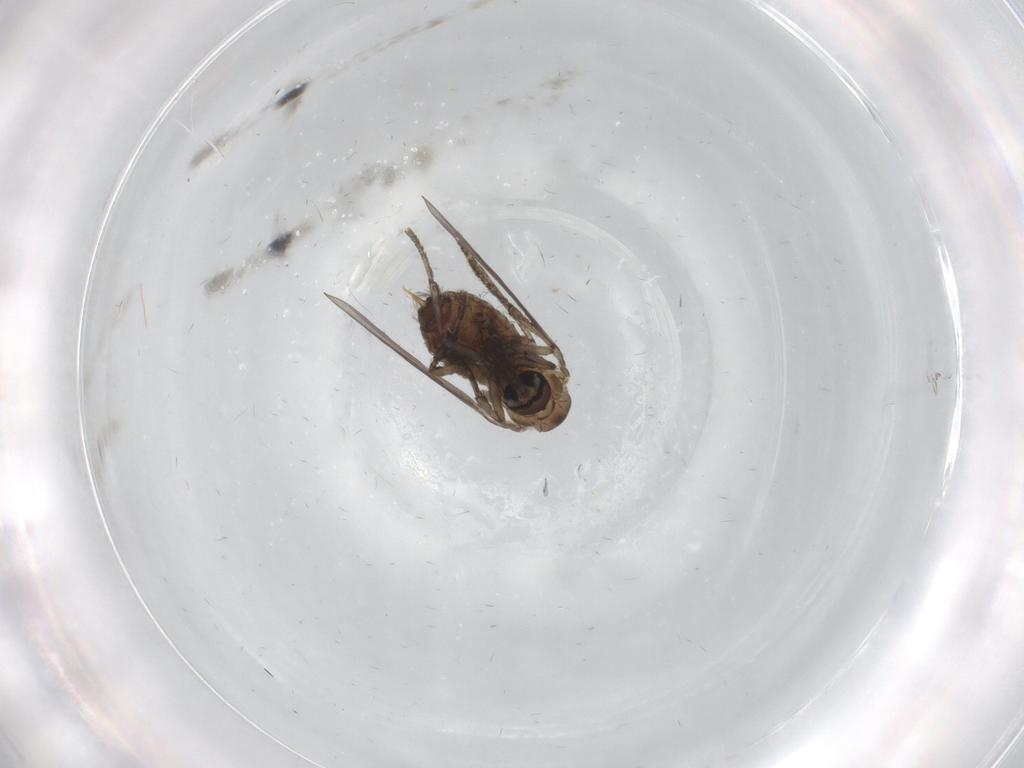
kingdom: Animalia
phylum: Arthropoda
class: Insecta
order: Diptera
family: Psychodidae
